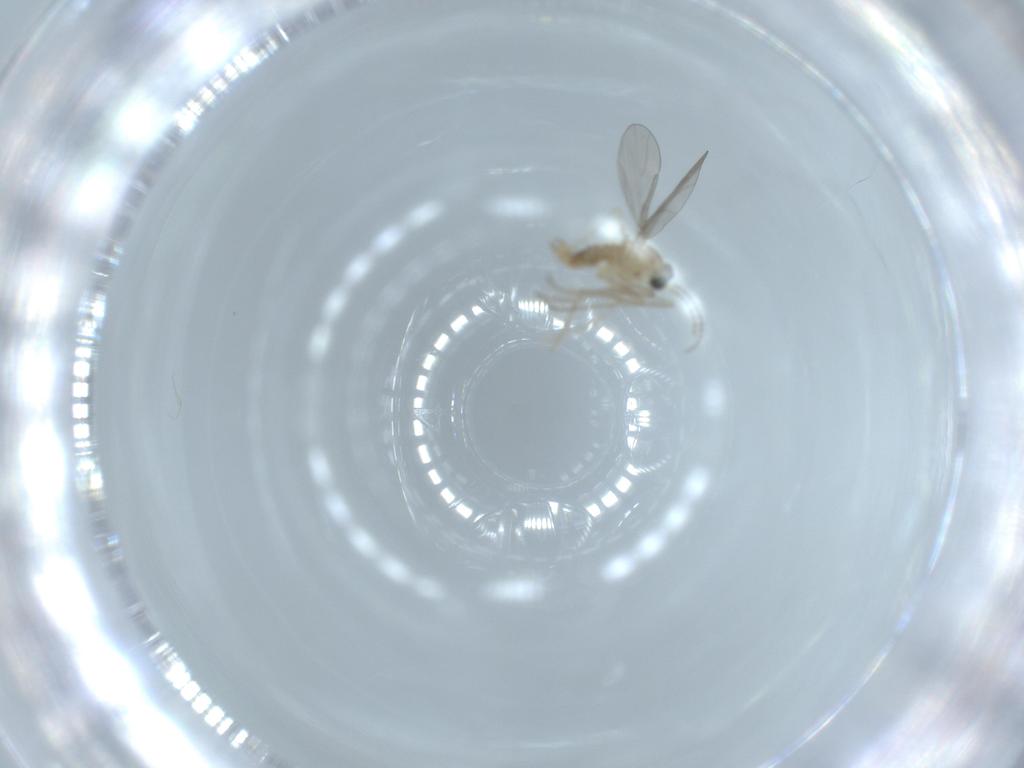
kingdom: Animalia
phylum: Arthropoda
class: Insecta
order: Diptera
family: Cecidomyiidae
